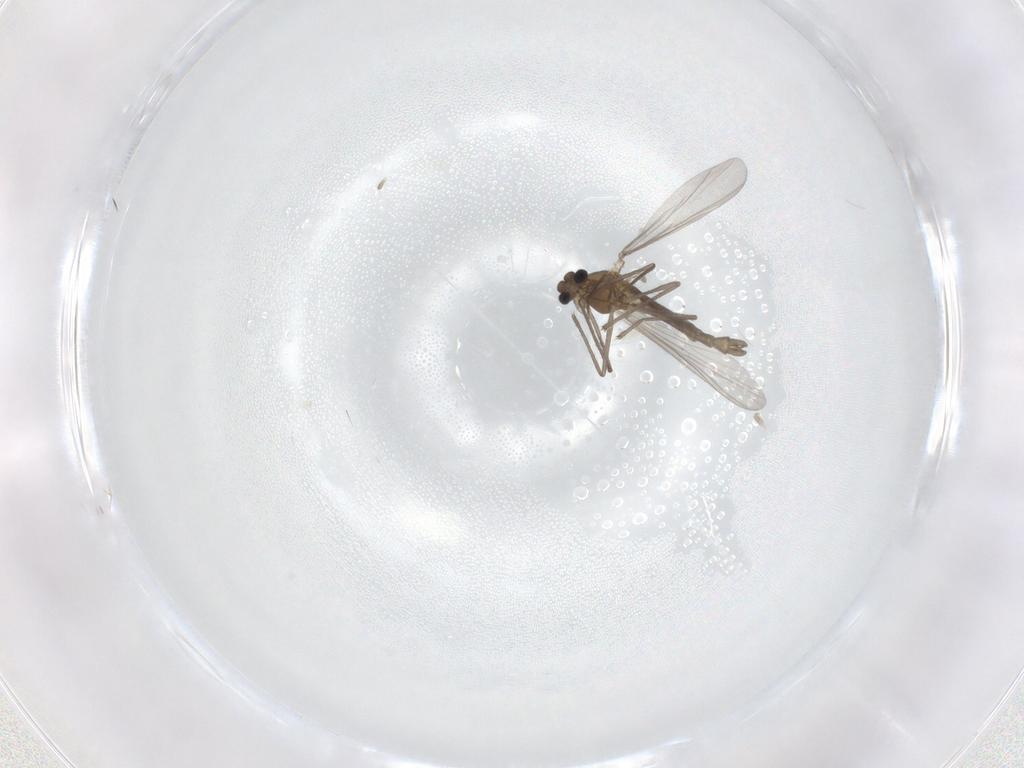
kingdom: Animalia
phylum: Arthropoda
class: Insecta
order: Diptera
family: Chironomidae
